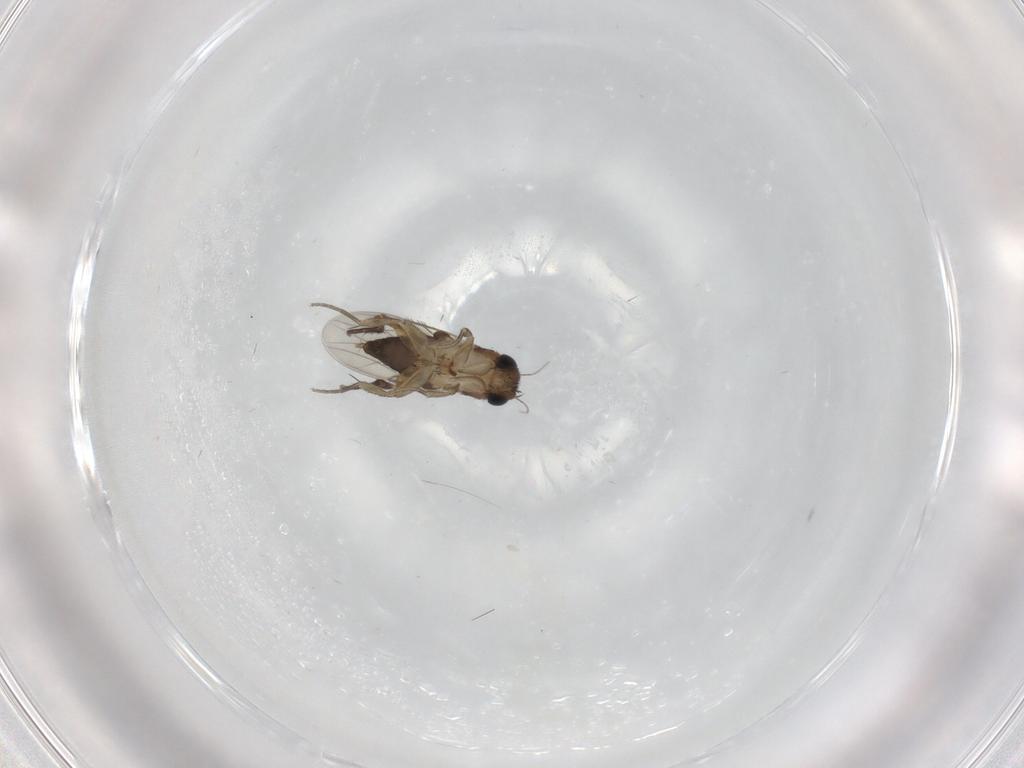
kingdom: Animalia
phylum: Arthropoda
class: Insecta
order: Diptera
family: Phoridae
